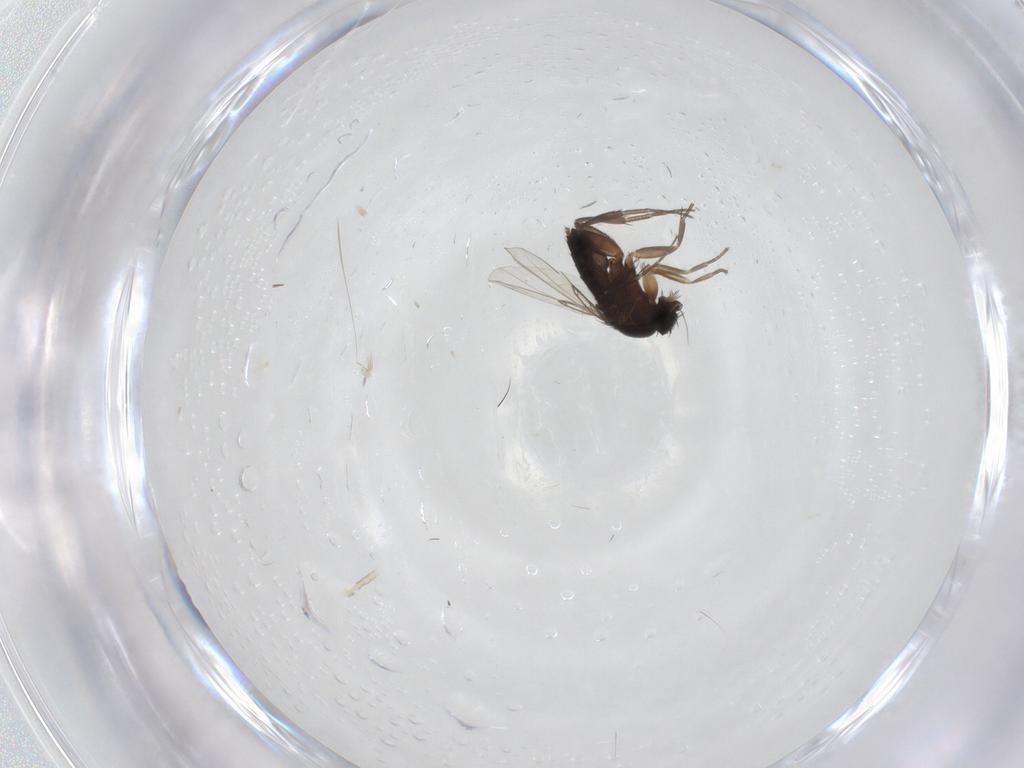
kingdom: Animalia
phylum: Arthropoda
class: Insecta
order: Diptera
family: Phoridae
